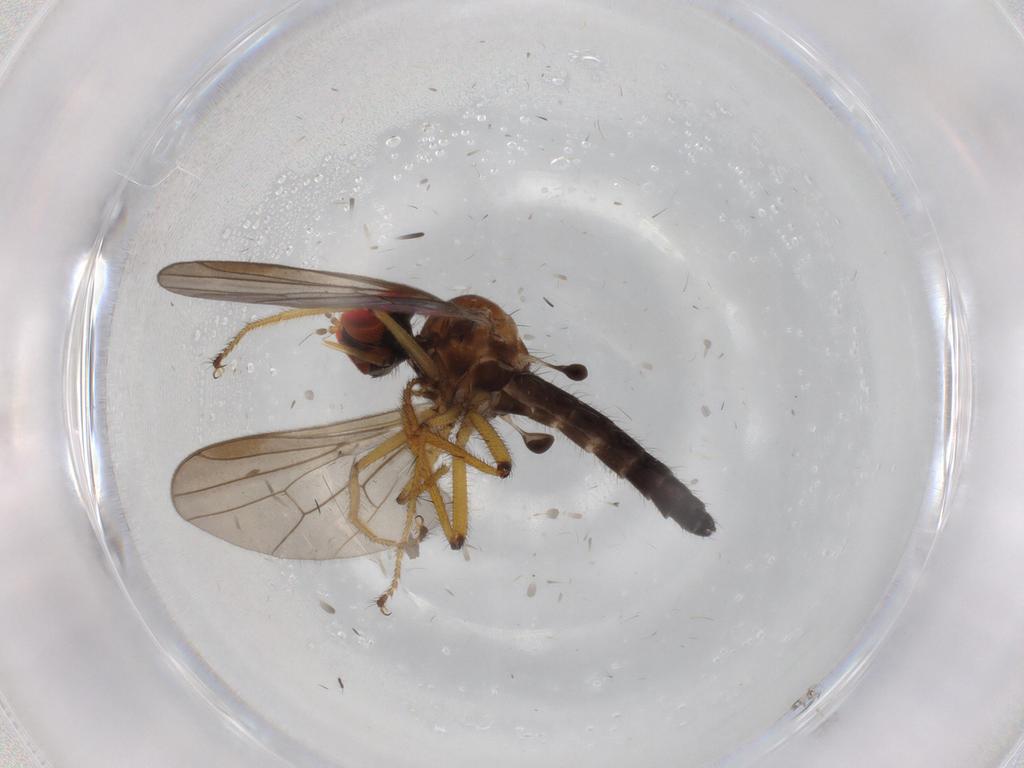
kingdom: Animalia
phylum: Arthropoda
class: Insecta
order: Diptera
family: Hybotidae
